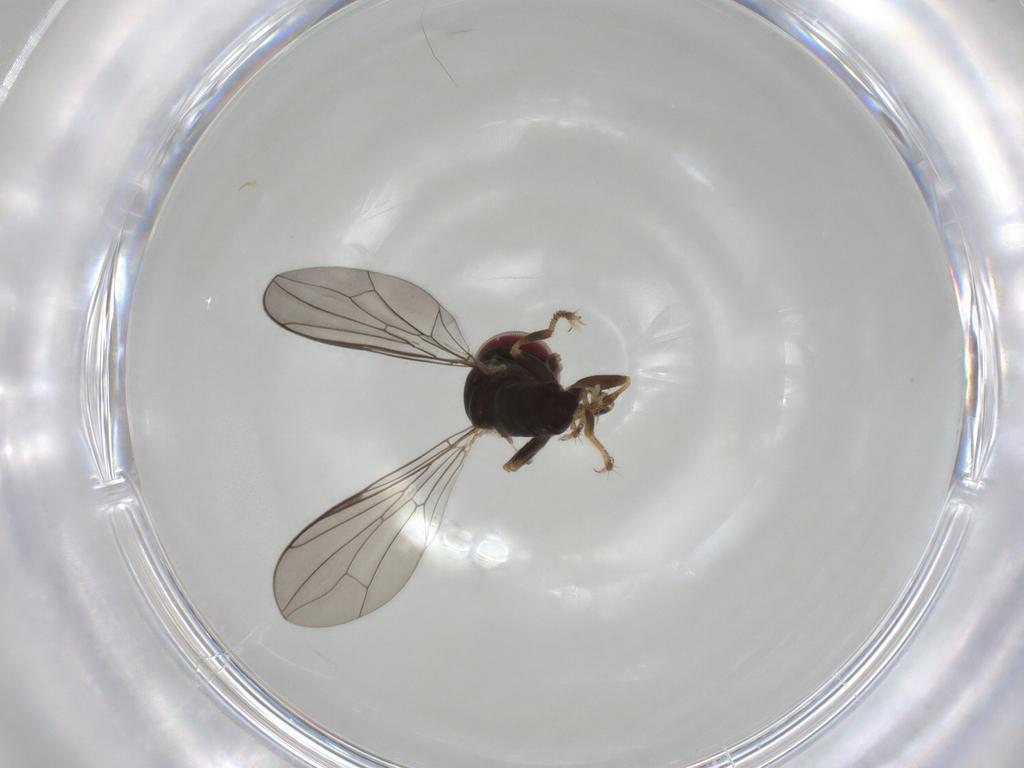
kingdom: Animalia
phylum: Arthropoda
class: Insecta
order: Diptera
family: Pipunculidae
